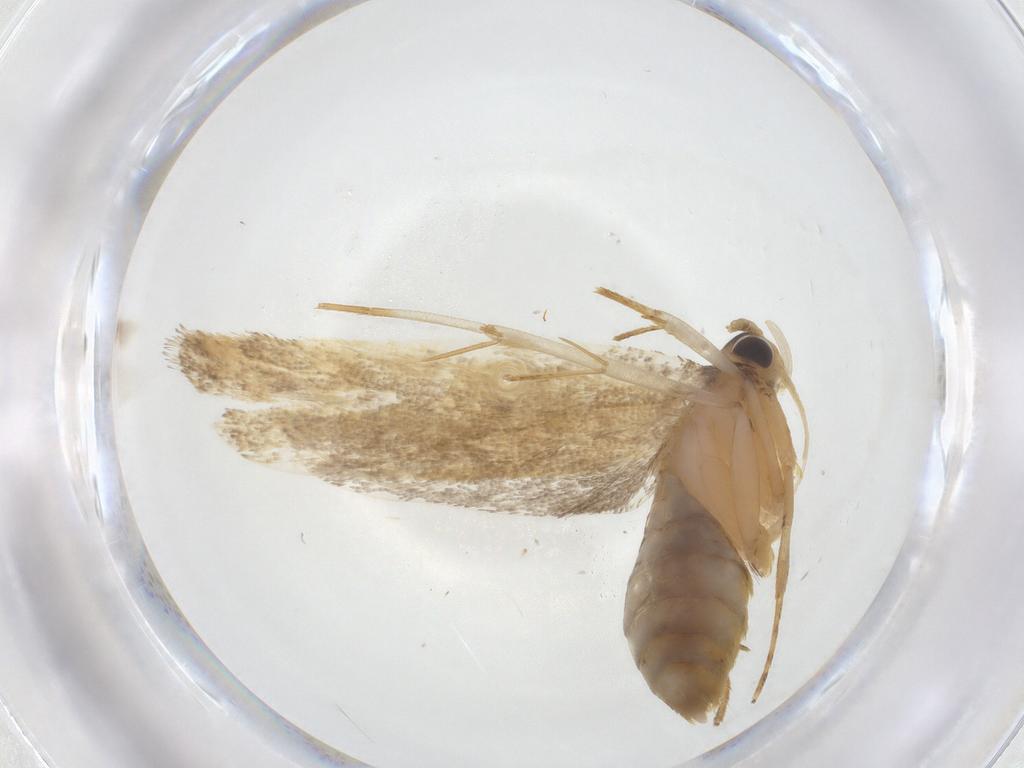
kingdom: Animalia
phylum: Arthropoda
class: Insecta
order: Lepidoptera
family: Lecithoceridae
